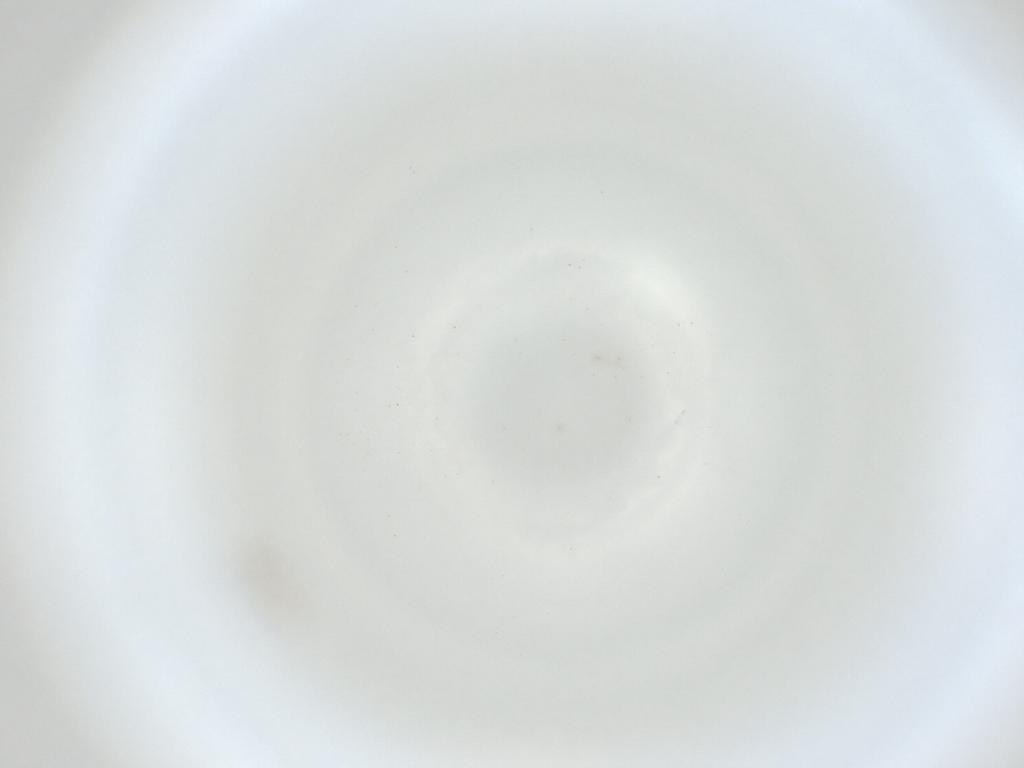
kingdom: Animalia
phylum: Arthropoda
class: Insecta
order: Diptera
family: Cecidomyiidae
